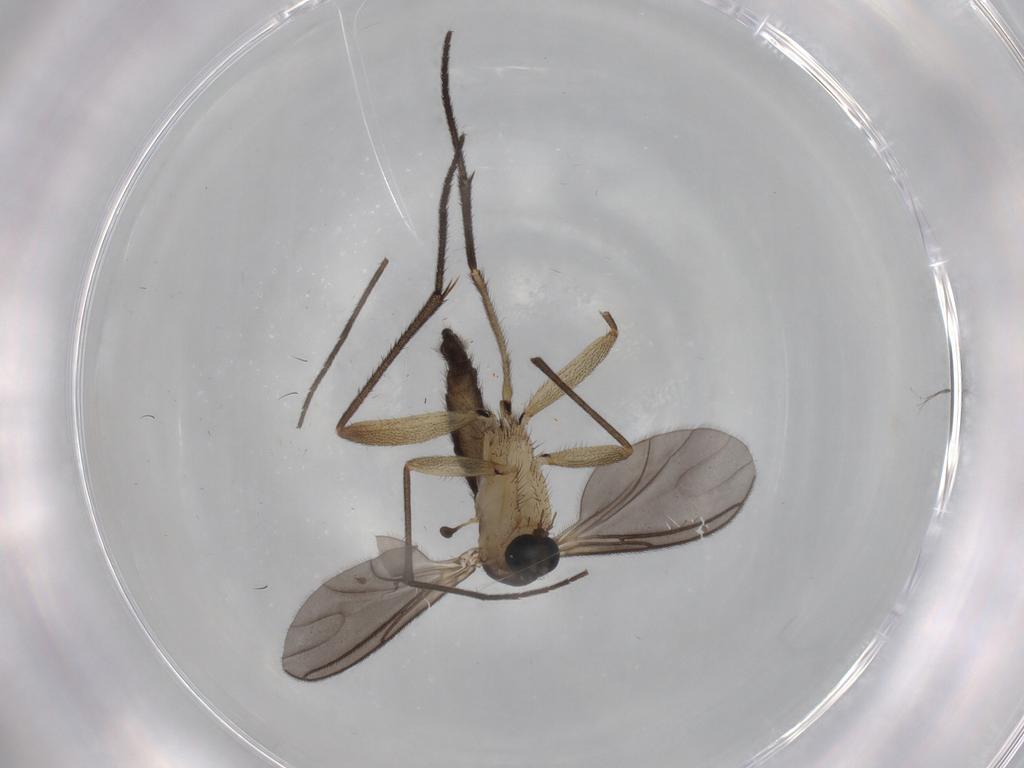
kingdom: Animalia
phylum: Arthropoda
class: Insecta
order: Diptera
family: Sciaridae
